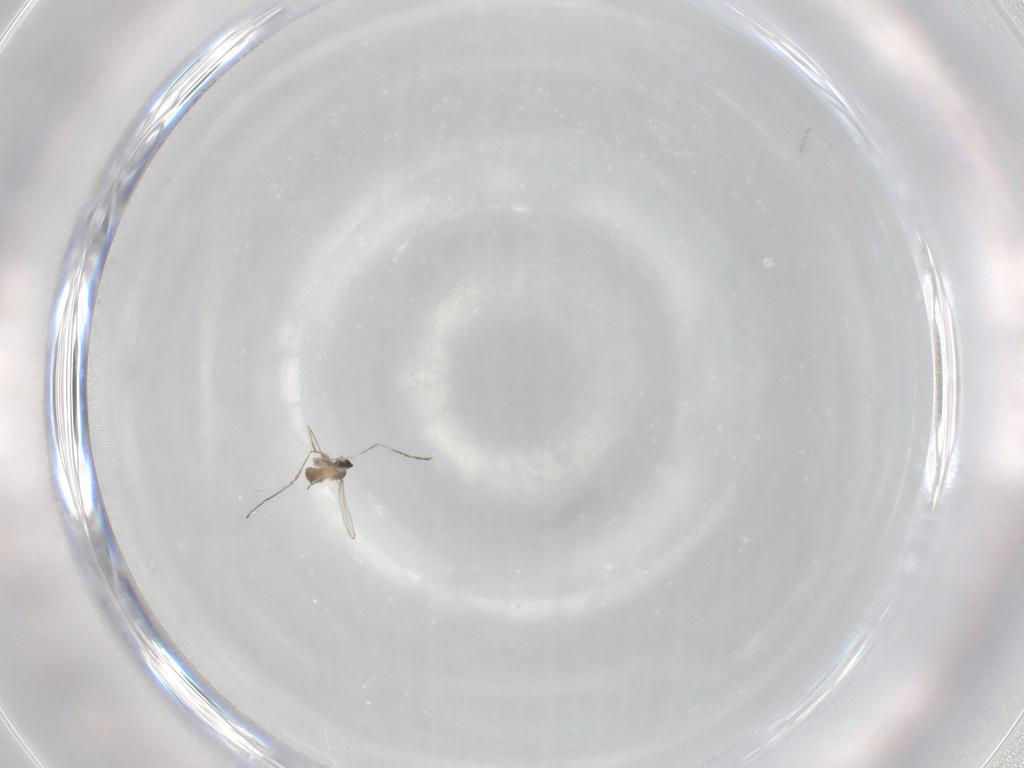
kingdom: Animalia
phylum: Arthropoda
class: Insecta
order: Diptera
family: Cecidomyiidae
